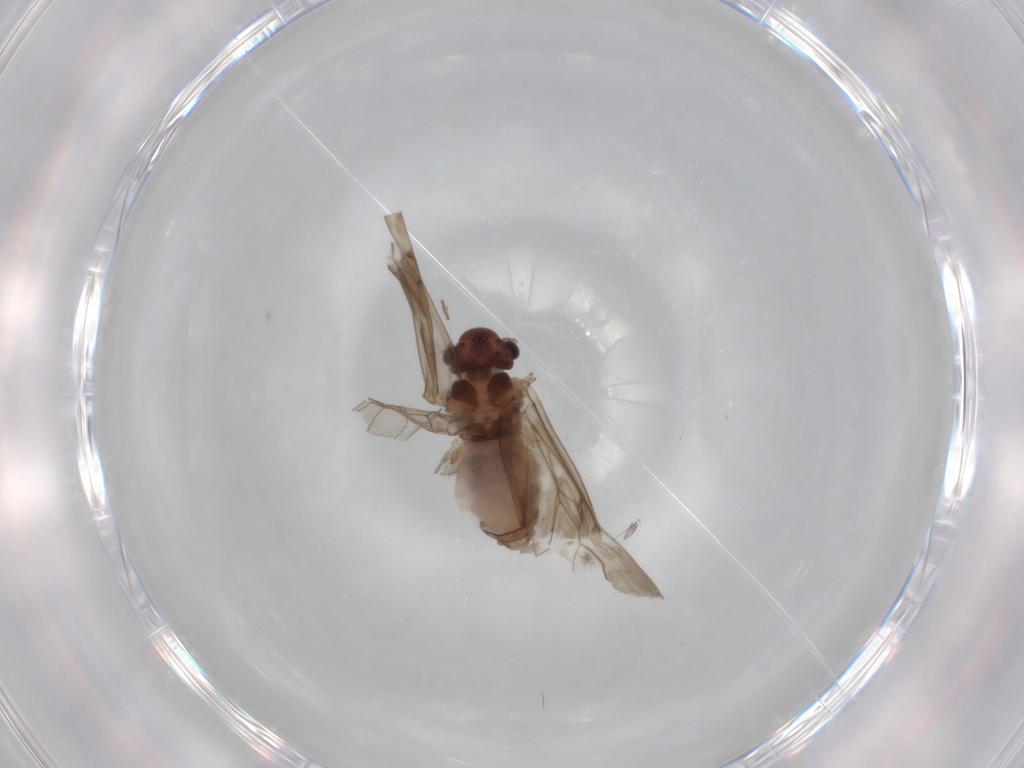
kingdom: Animalia
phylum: Arthropoda
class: Insecta
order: Psocodea
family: Peripsocidae
